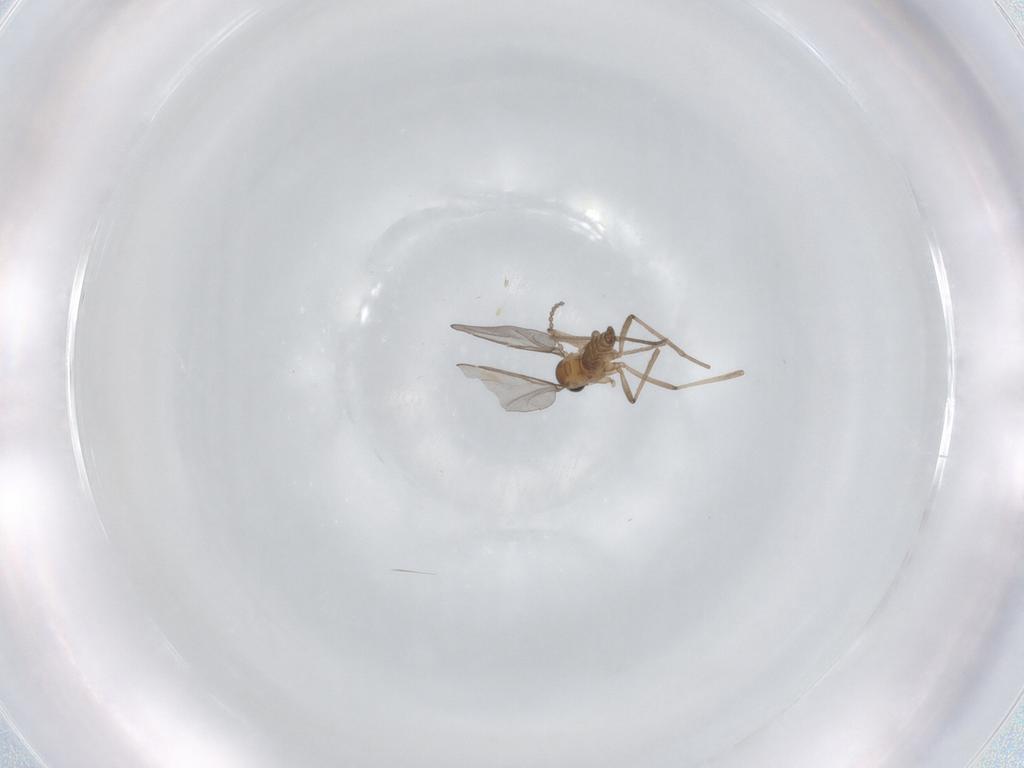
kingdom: Animalia
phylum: Arthropoda
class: Insecta
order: Diptera
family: Cecidomyiidae
